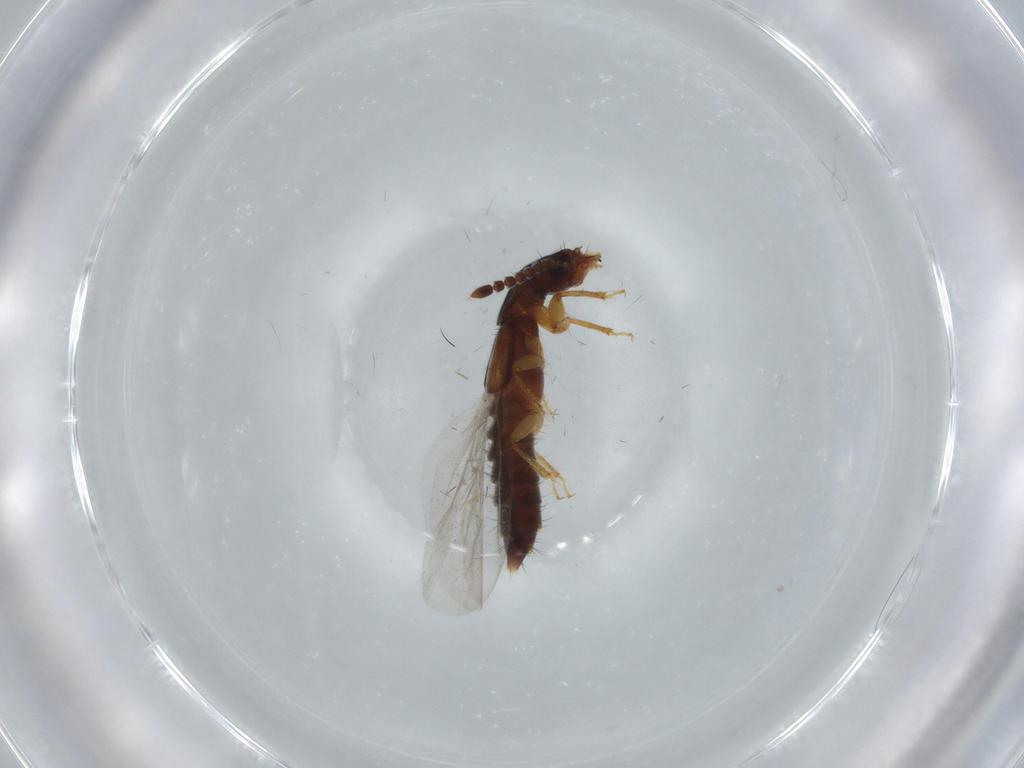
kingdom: Animalia
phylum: Arthropoda
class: Insecta
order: Coleoptera
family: Staphylinidae
